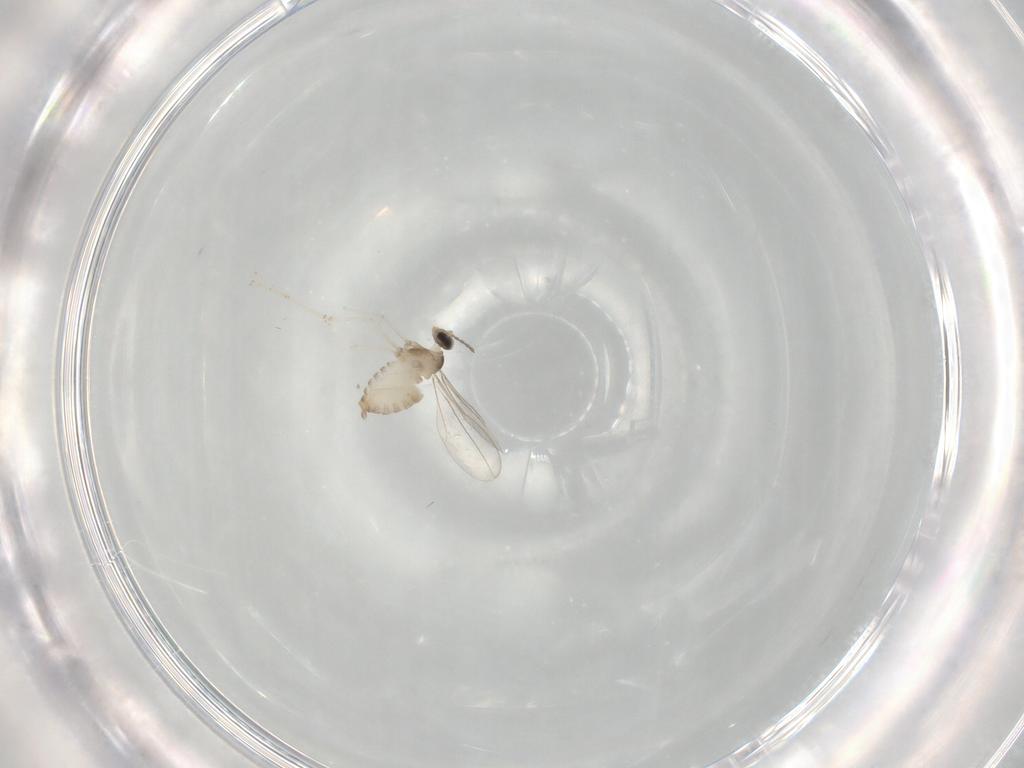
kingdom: Animalia
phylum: Arthropoda
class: Insecta
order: Diptera
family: Cecidomyiidae
